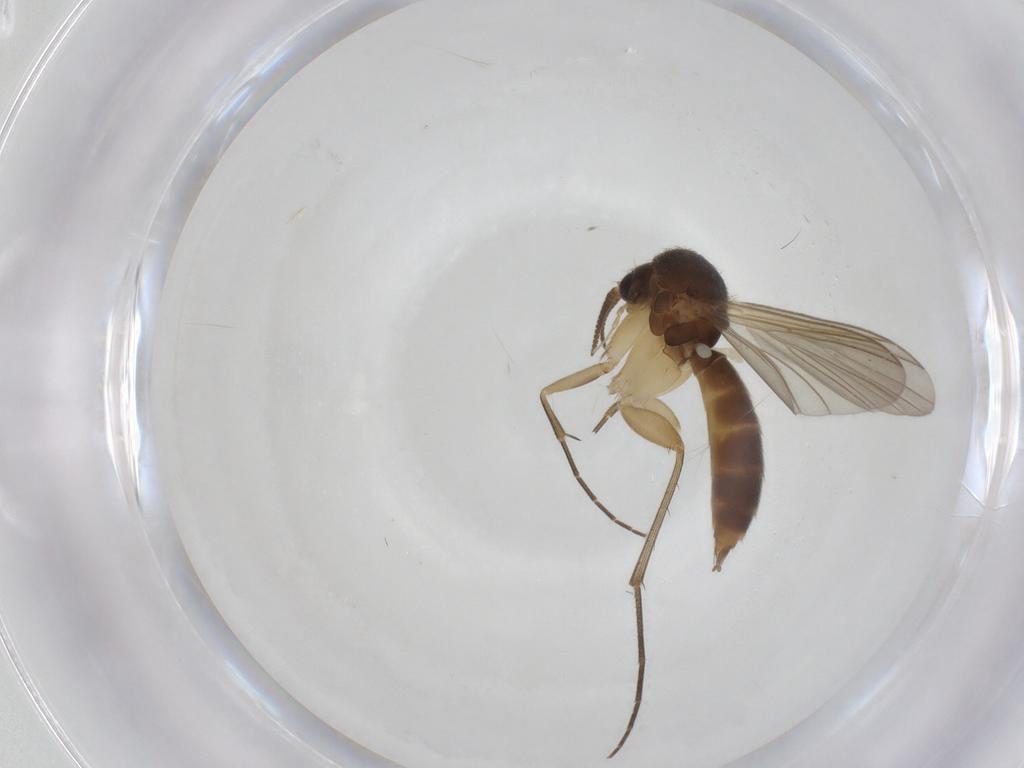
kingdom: Animalia
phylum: Arthropoda
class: Insecta
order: Diptera
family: Mycetophilidae
